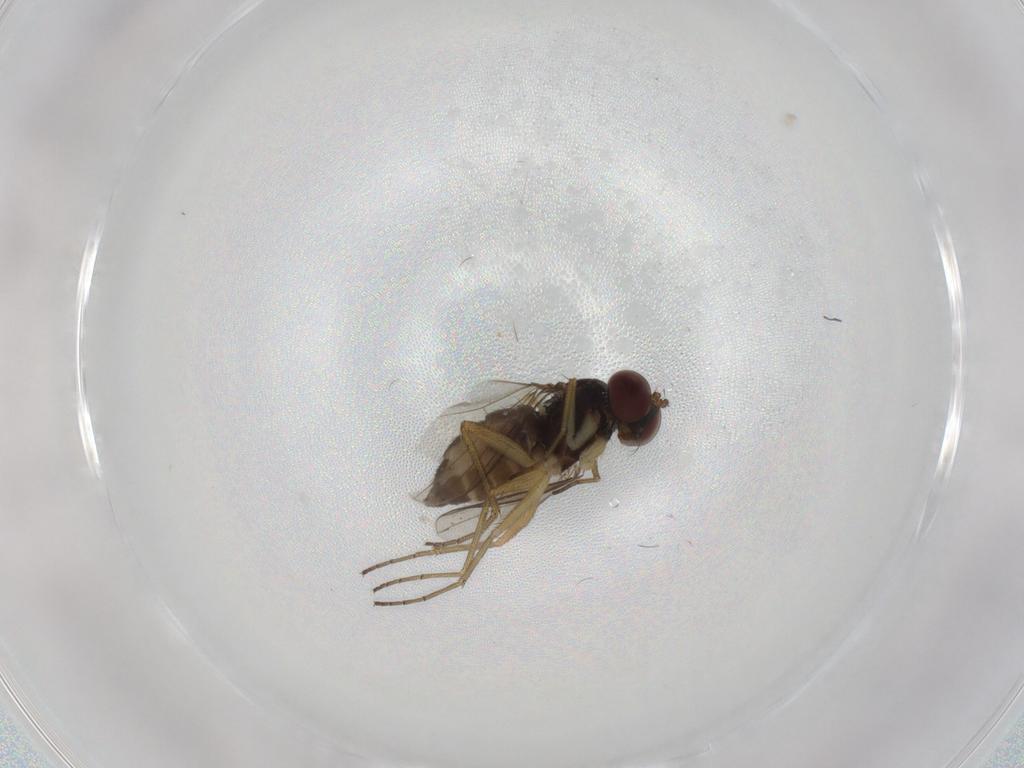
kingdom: Animalia
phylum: Arthropoda
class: Insecta
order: Diptera
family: Dolichopodidae
